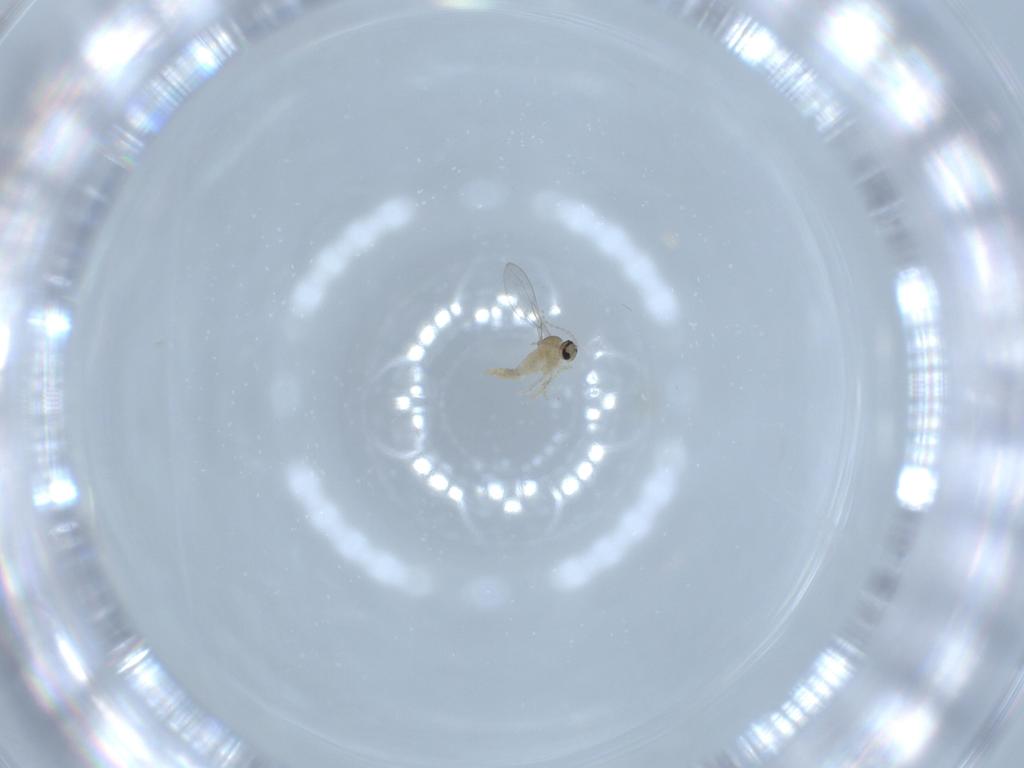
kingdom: Animalia
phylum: Arthropoda
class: Insecta
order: Diptera
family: Cecidomyiidae
